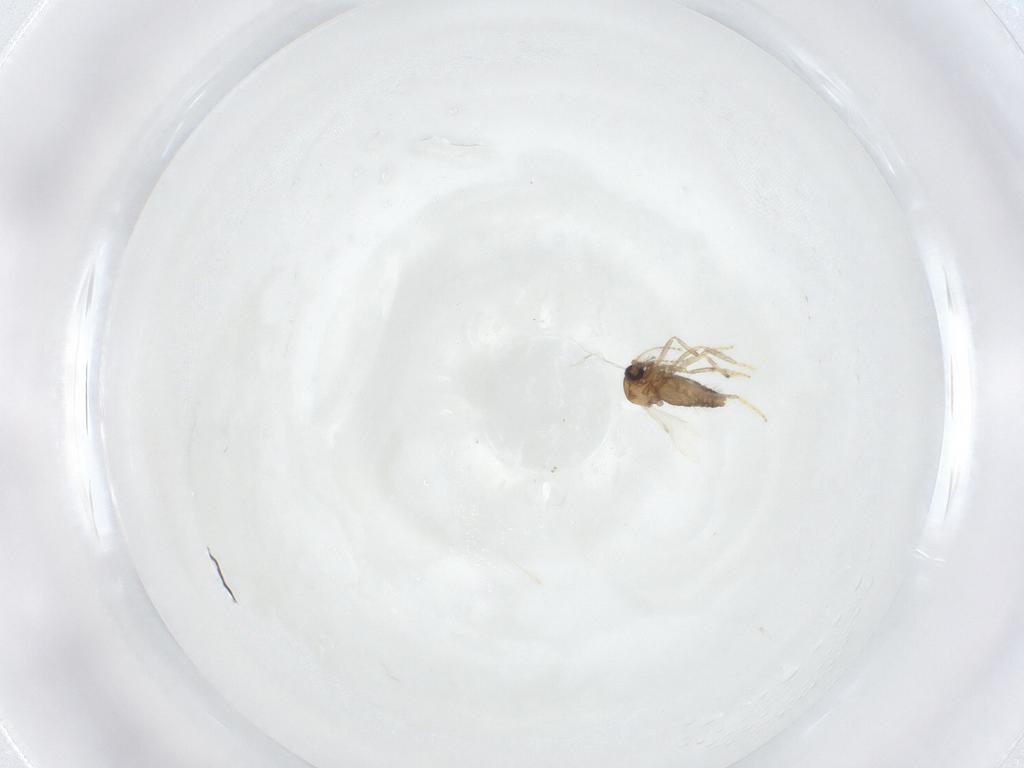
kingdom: Animalia
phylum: Arthropoda
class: Insecta
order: Diptera
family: Ceratopogonidae
